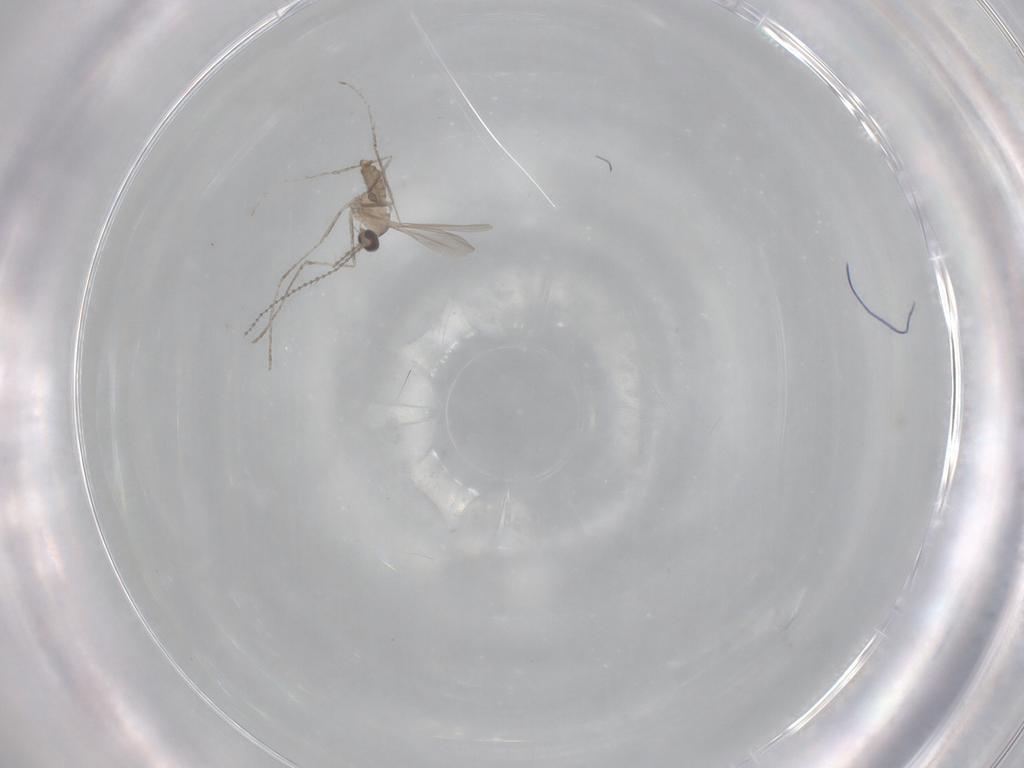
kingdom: Animalia
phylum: Arthropoda
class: Insecta
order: Diptera
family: Cecidomyiidae
